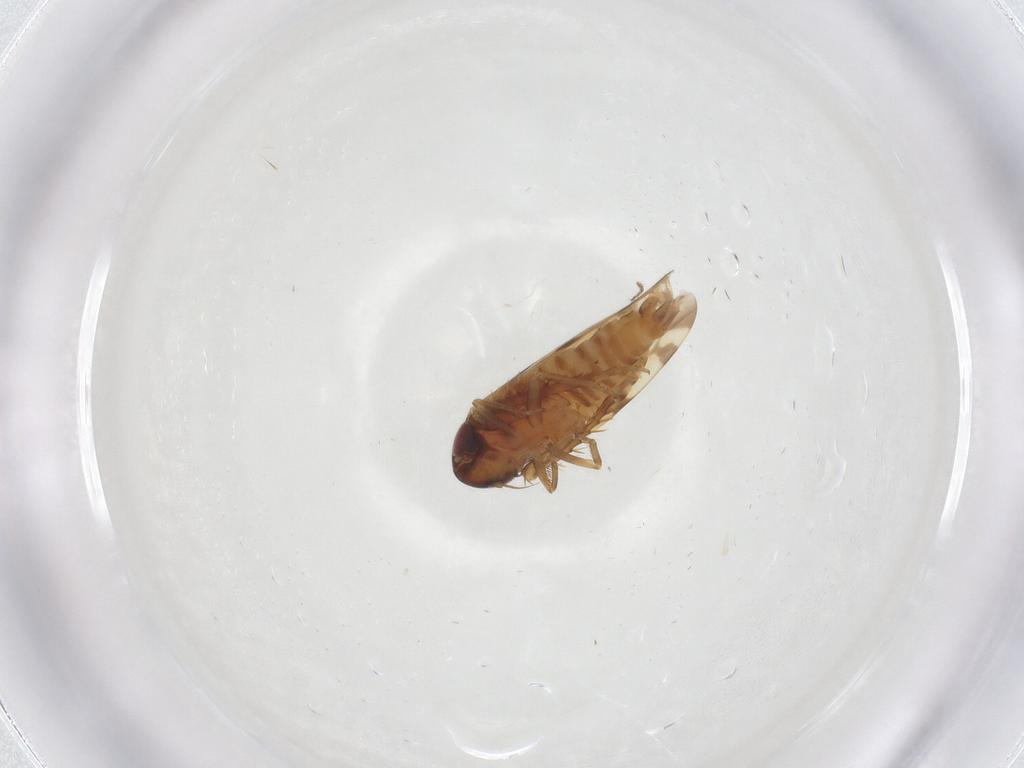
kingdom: Animalia
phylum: Arthropoda
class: Insecta
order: Hemiptera
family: Cicadellidae
